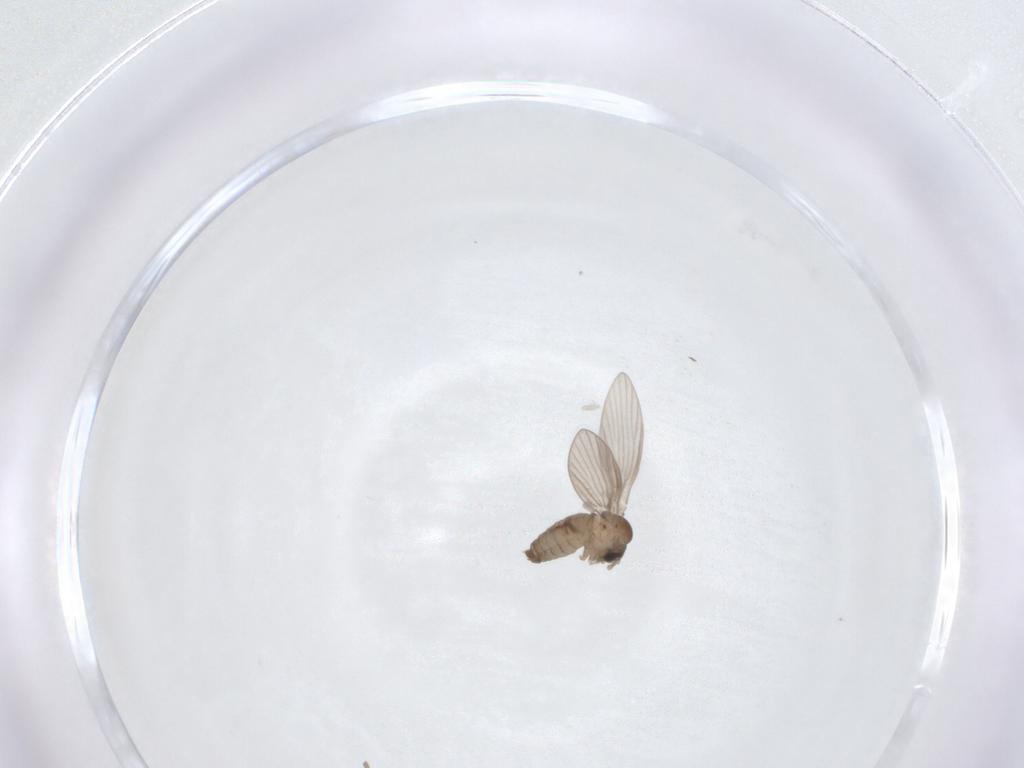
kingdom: Animalia
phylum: Arthropoda
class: Insecta
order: Diptera
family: Psychodidae
